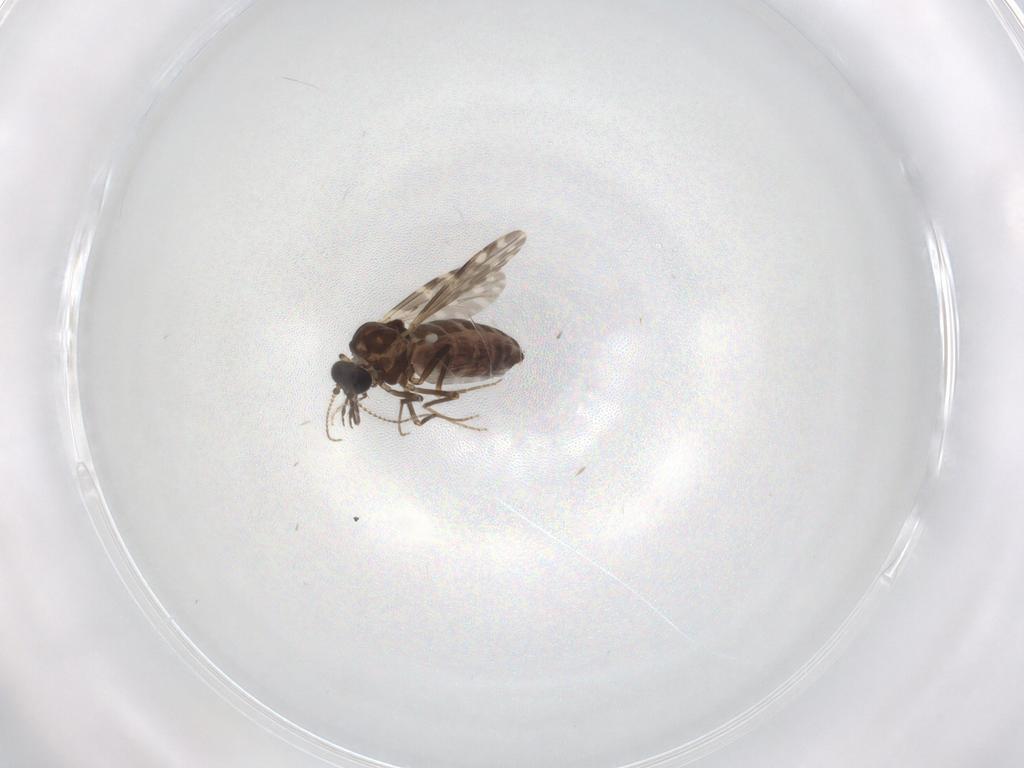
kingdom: Animalia
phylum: Arthropoda
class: Insecta
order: Diptera
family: Ceratopogonidae
